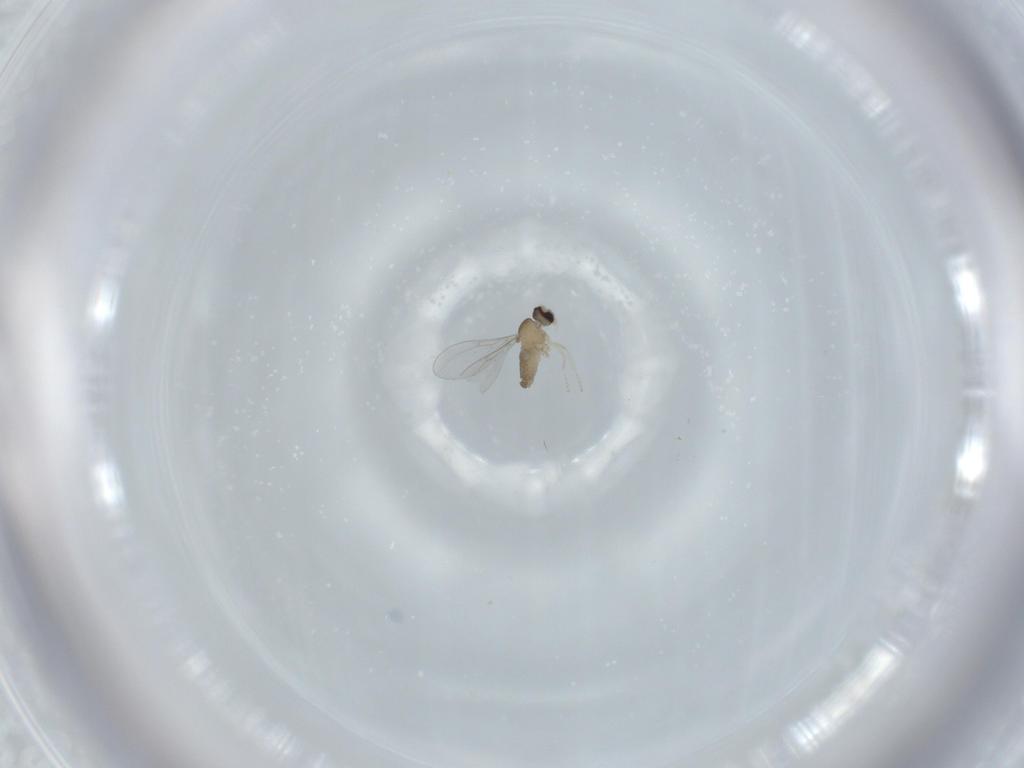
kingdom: Animalia
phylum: Arthropoda
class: Insecta
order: Diptera
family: Cecidomyiidae
